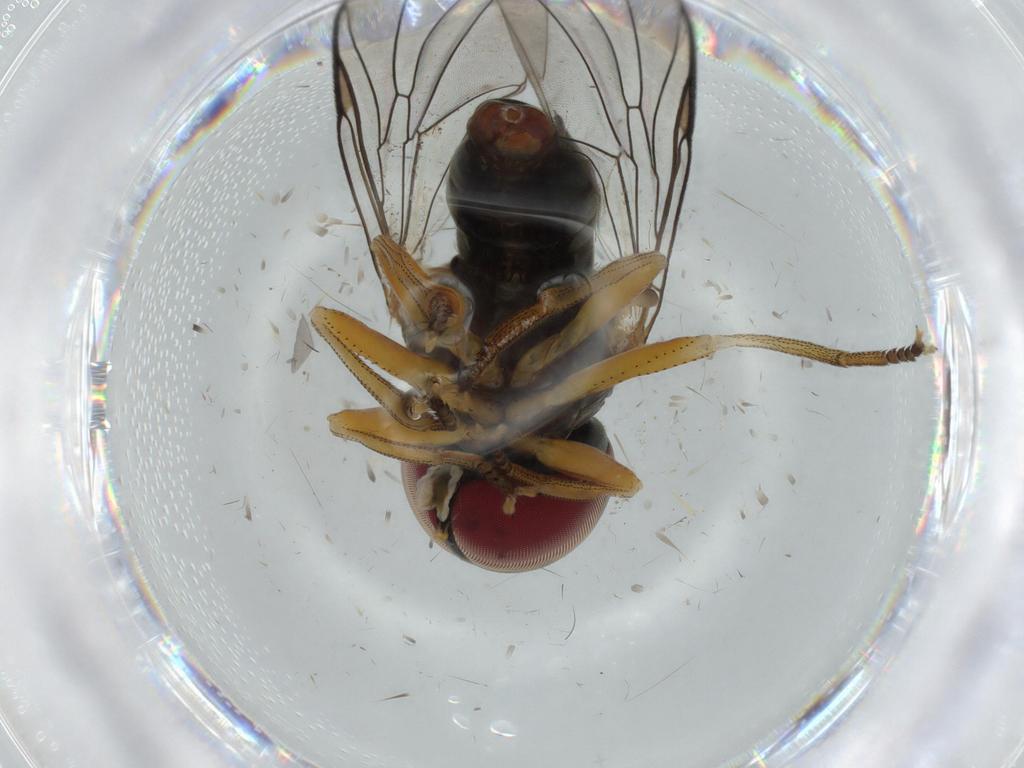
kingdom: Animalia
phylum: Arthropoda
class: Insecta
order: Diptera
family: Pipunculidae
